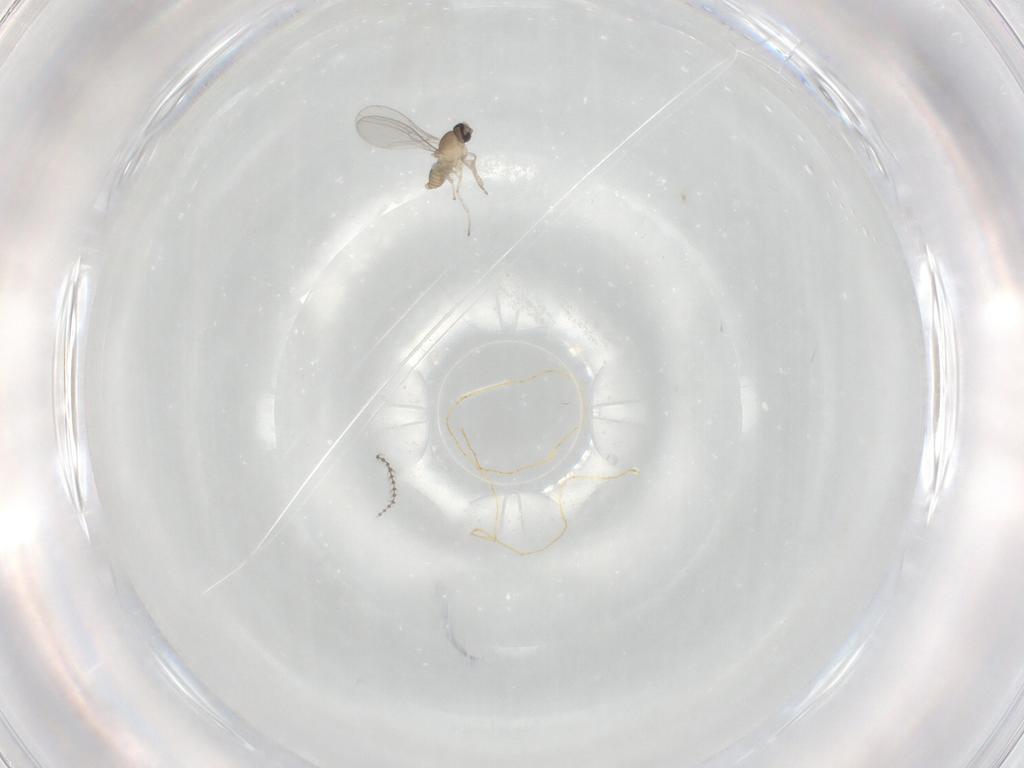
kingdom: Animalia
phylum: Arthropoda
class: Insecta
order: Diptera
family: Cecidomyiidae
